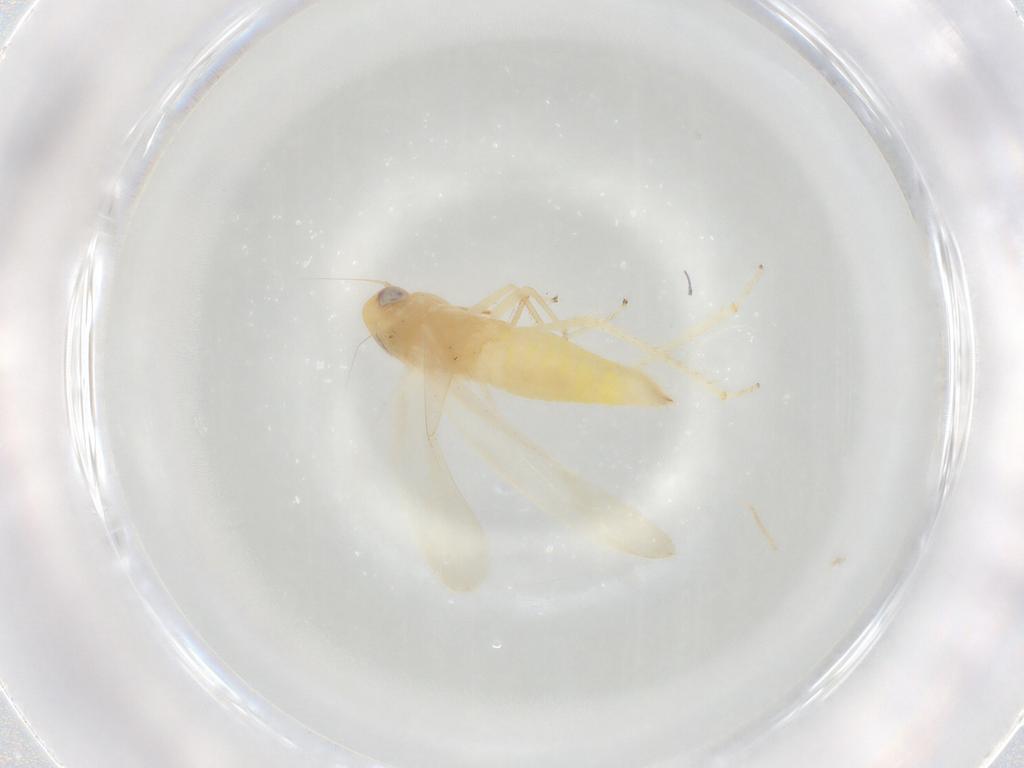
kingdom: Animalia
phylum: Arthropoda
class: Insecta
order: Hemiptera
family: Cicadellidae
